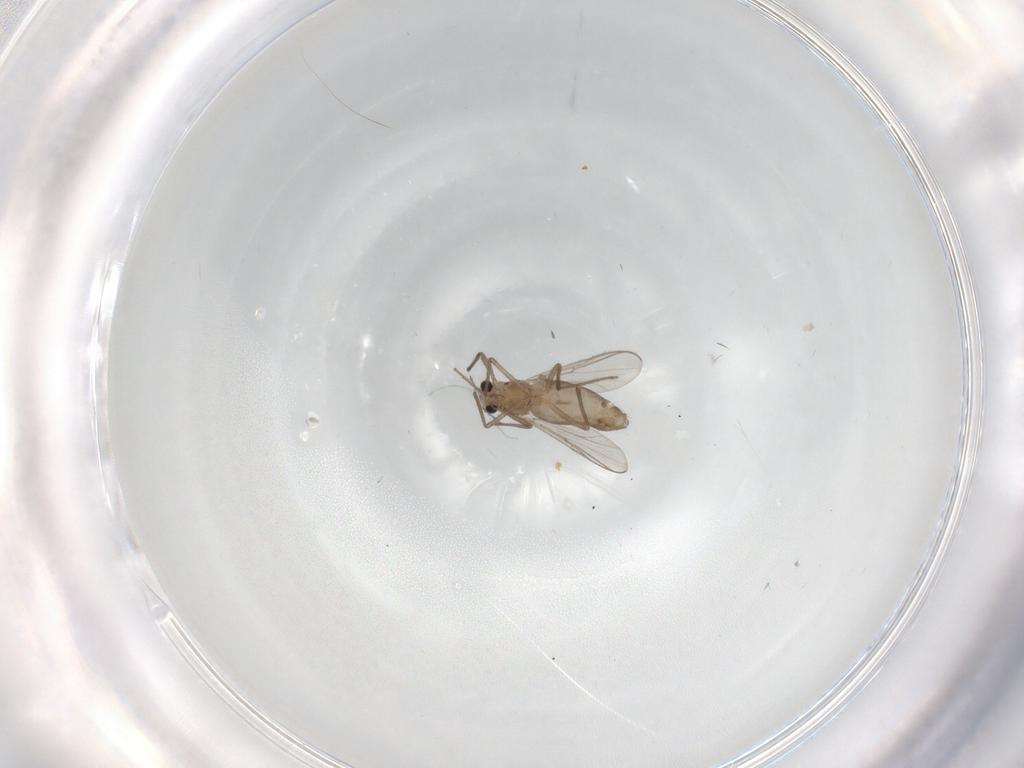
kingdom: Animalia
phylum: Arthropoda
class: Insecta
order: Diptera
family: Chironomidae
